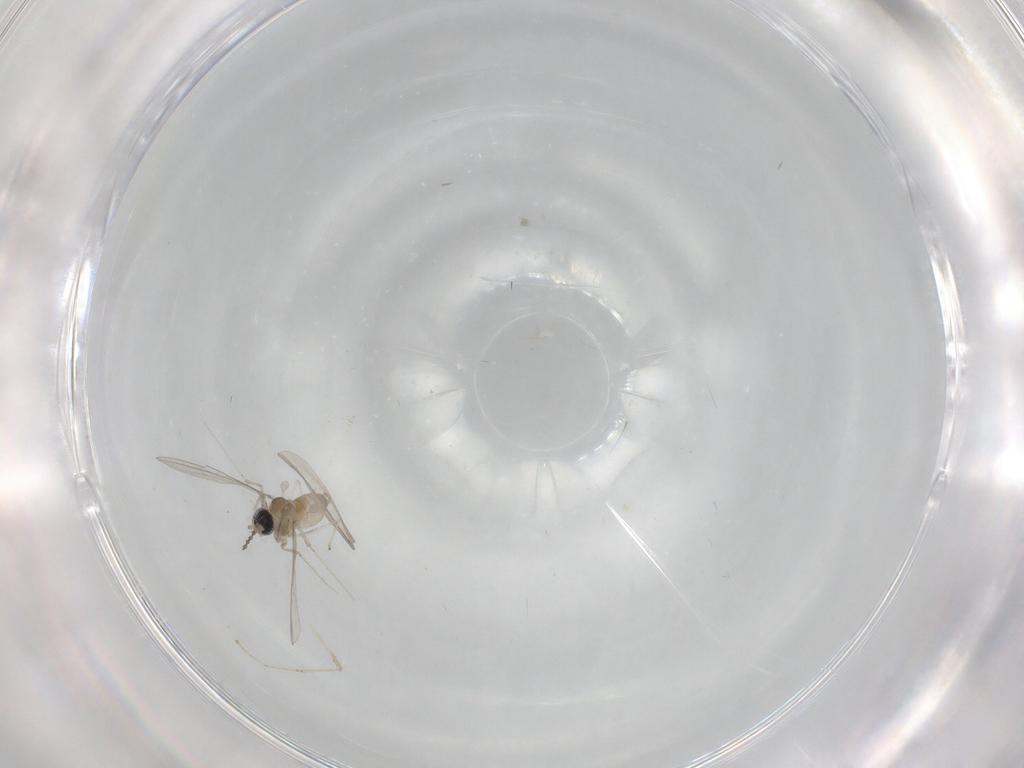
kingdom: Animalia
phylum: Arthropoda
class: Insecta
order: Diptera
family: Cecidomyiidae
